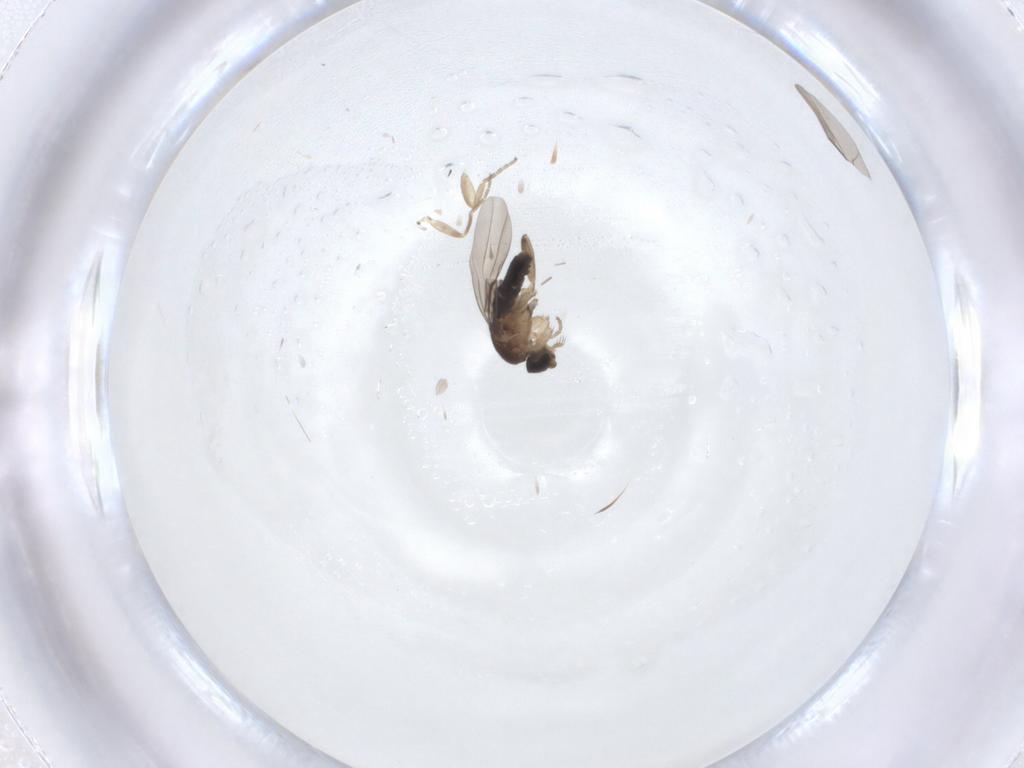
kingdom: Animalia
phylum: Arthropoda
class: Insecta
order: Diptera
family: Phoridae
